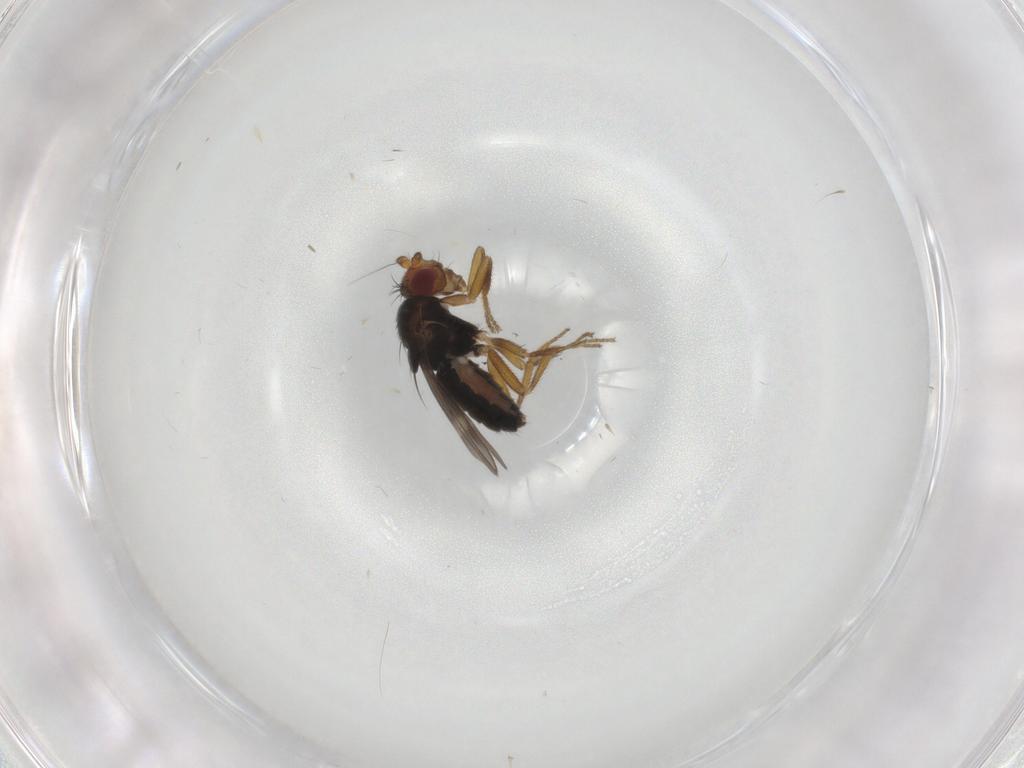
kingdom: Animalia
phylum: Arthropoda
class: Insecta
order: Diptera
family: Sphaeroceridae
